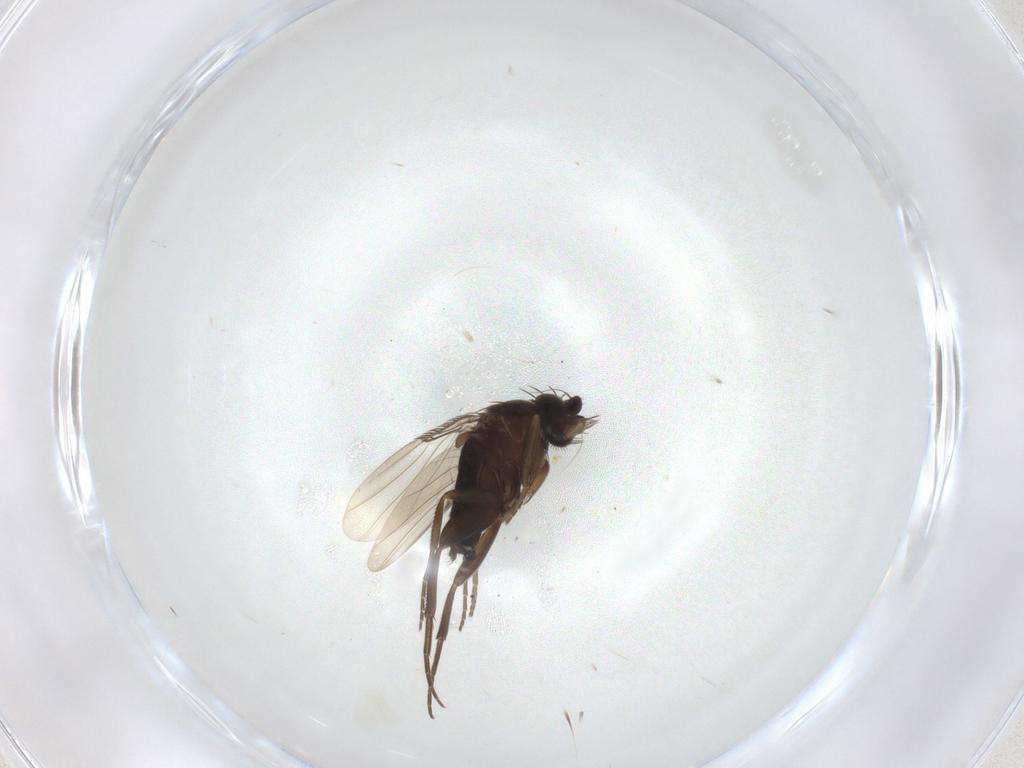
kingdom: Animalia
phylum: Arthropoda
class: Insecta
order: Diptera
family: Phoridae
